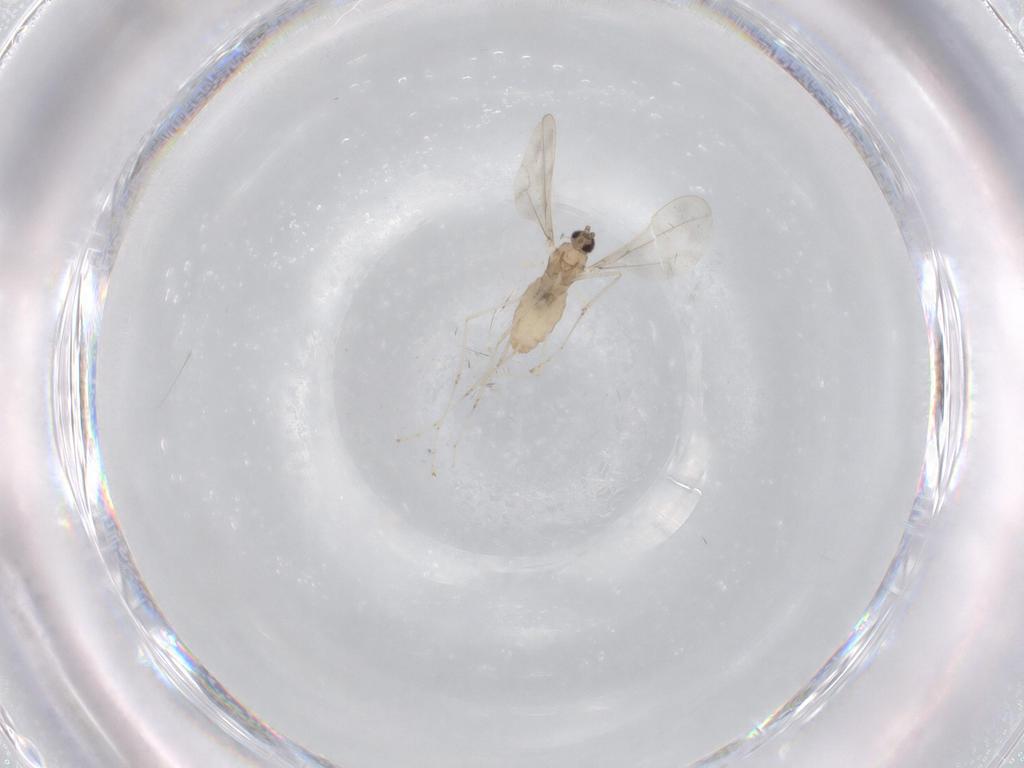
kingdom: Animalia
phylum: Arthropoda
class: Insecta
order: Diptera
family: Cecidomyiidae
